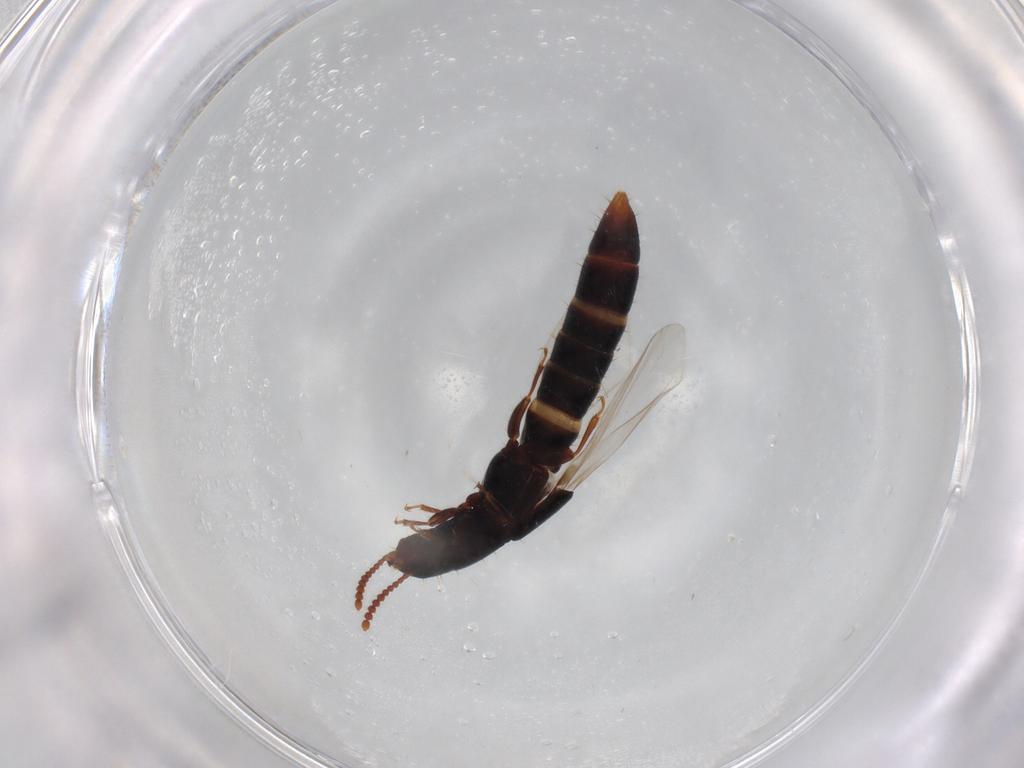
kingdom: Animalia
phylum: Arthropoda
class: Insecta
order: Coleoptera
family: Staphylinidae
